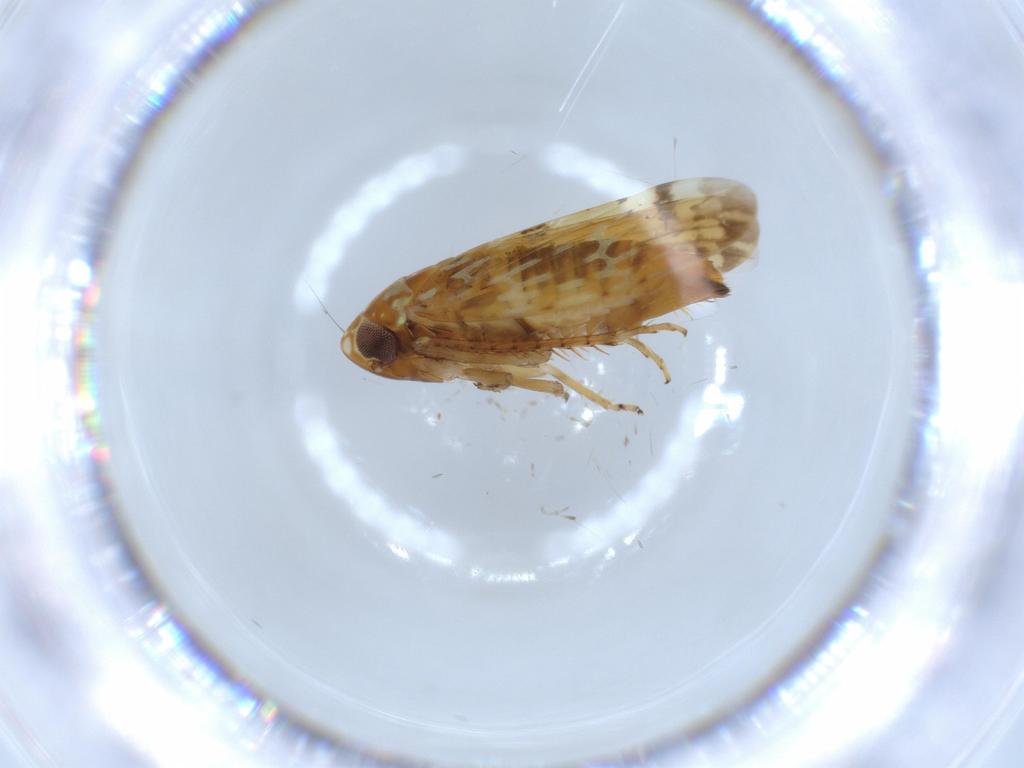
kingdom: Animalia
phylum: Arthropoda
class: Insecta
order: Hemiptera
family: Cicadellidae
